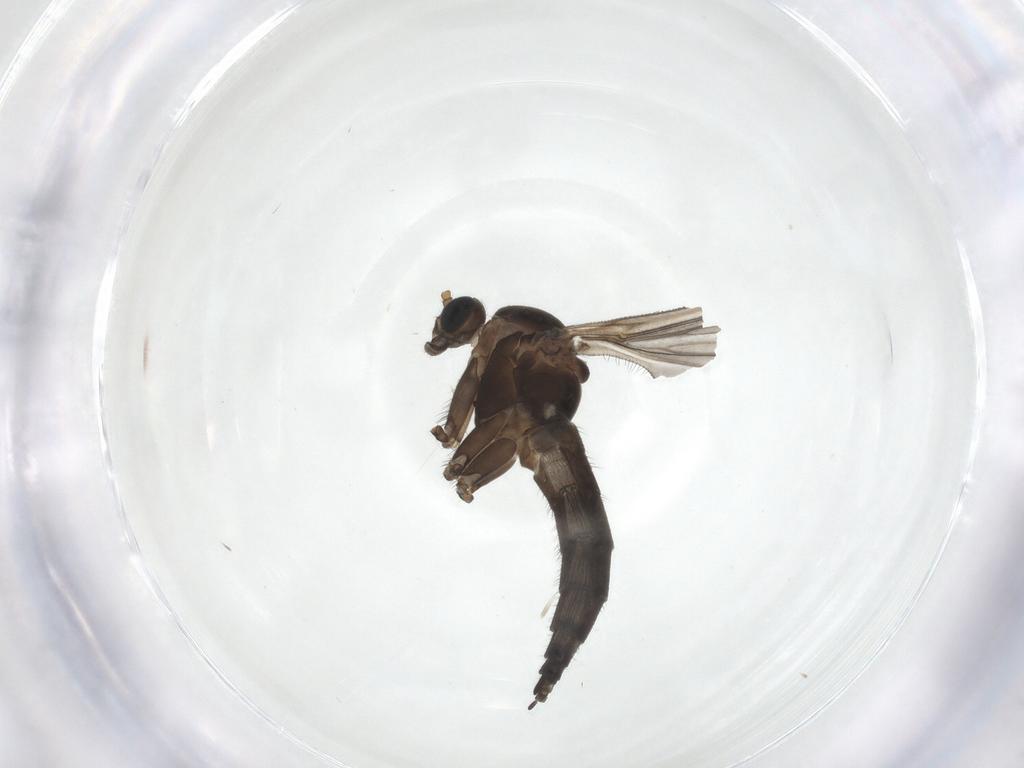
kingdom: Animalia
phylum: Arthropoda
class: Insecta
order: Diptera
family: Sciaridae
